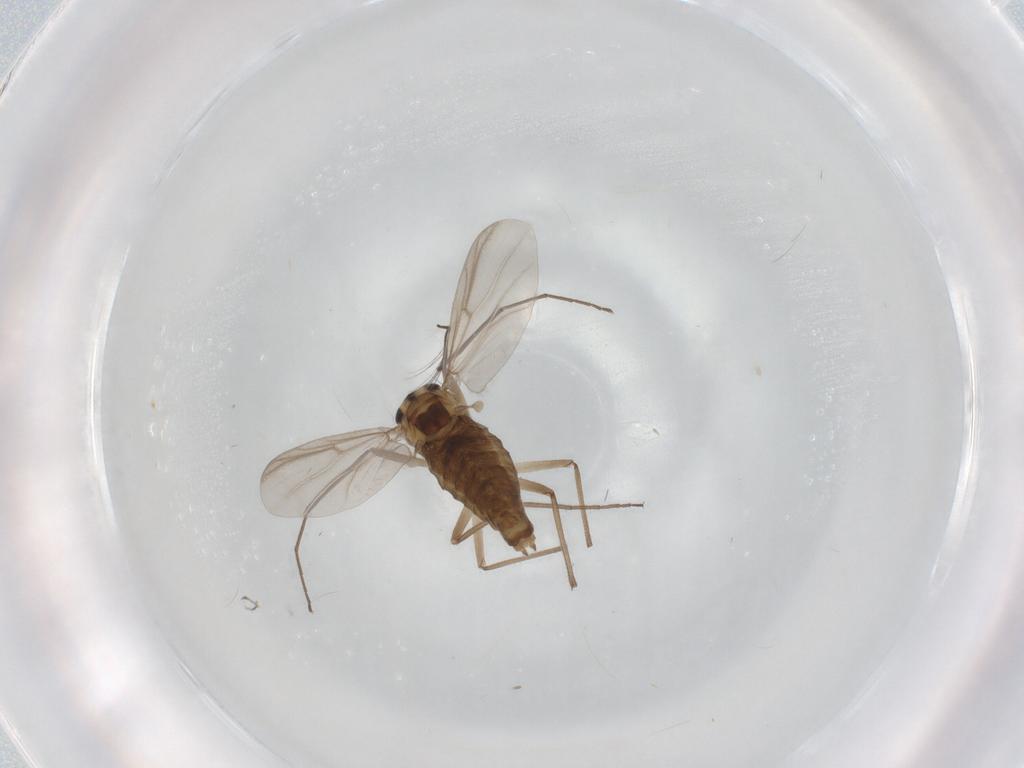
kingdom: Animalia
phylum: Arthropoda
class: Insecta
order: Diptera
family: Chironomidae
